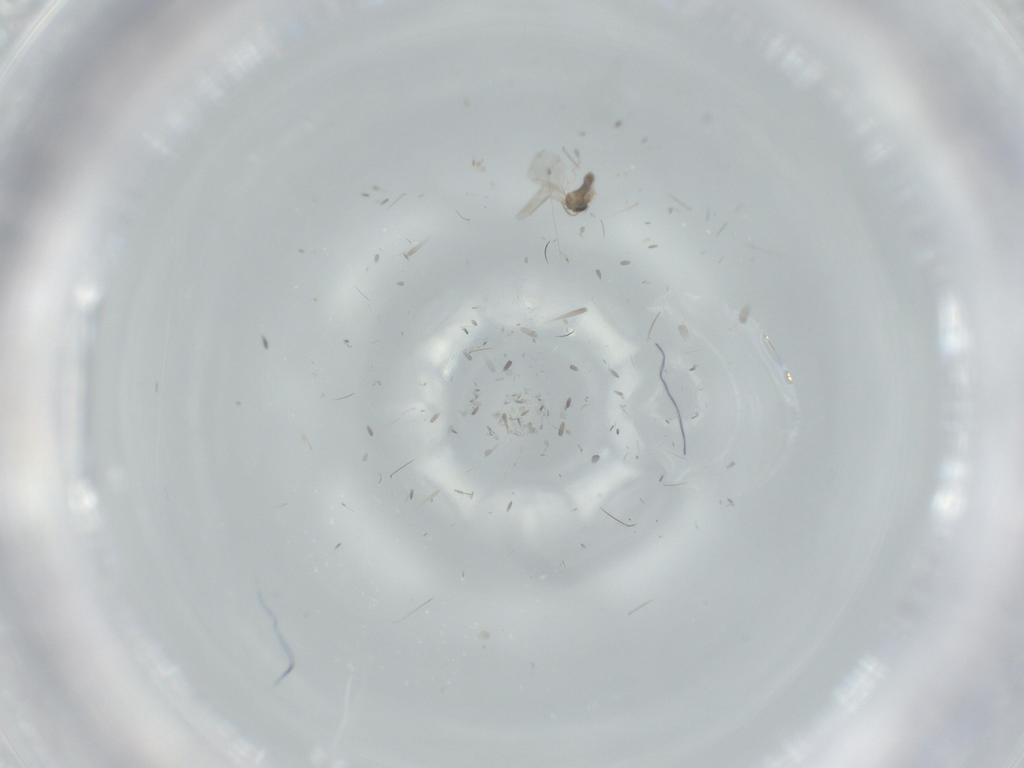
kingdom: Animalia
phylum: Arthropoda
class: Insecta
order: Diptera
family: Cecidomyiidae
